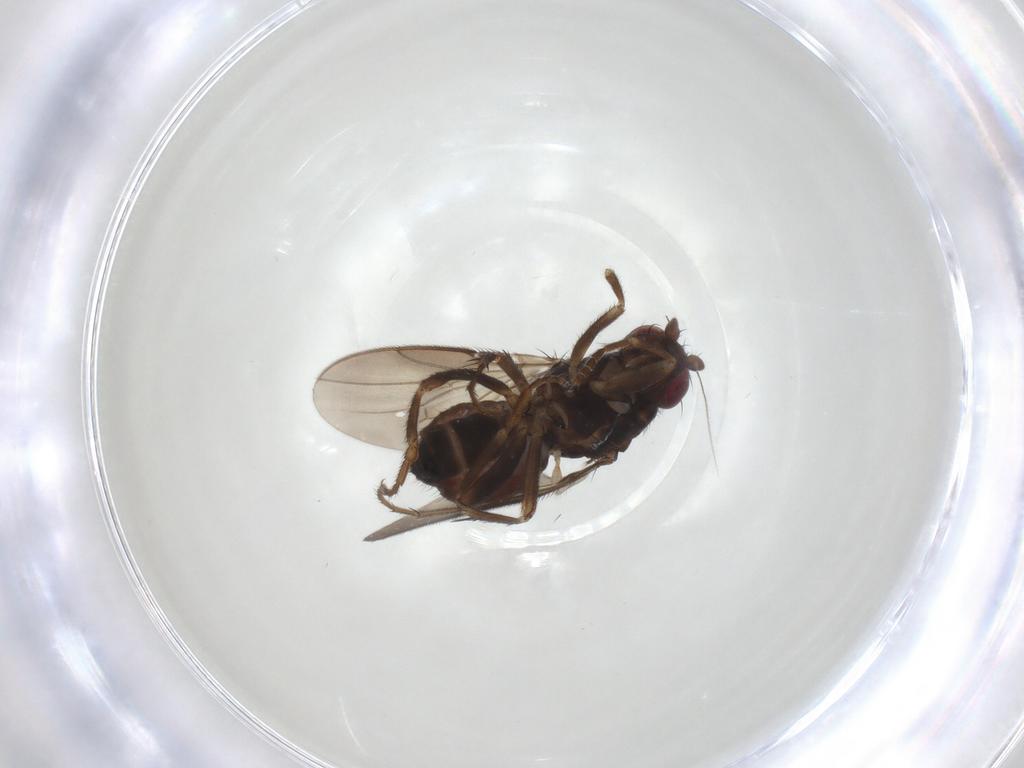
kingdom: Animalia
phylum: Arthropoda
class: Insecta
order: Diptera
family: Sphaeroceridae
